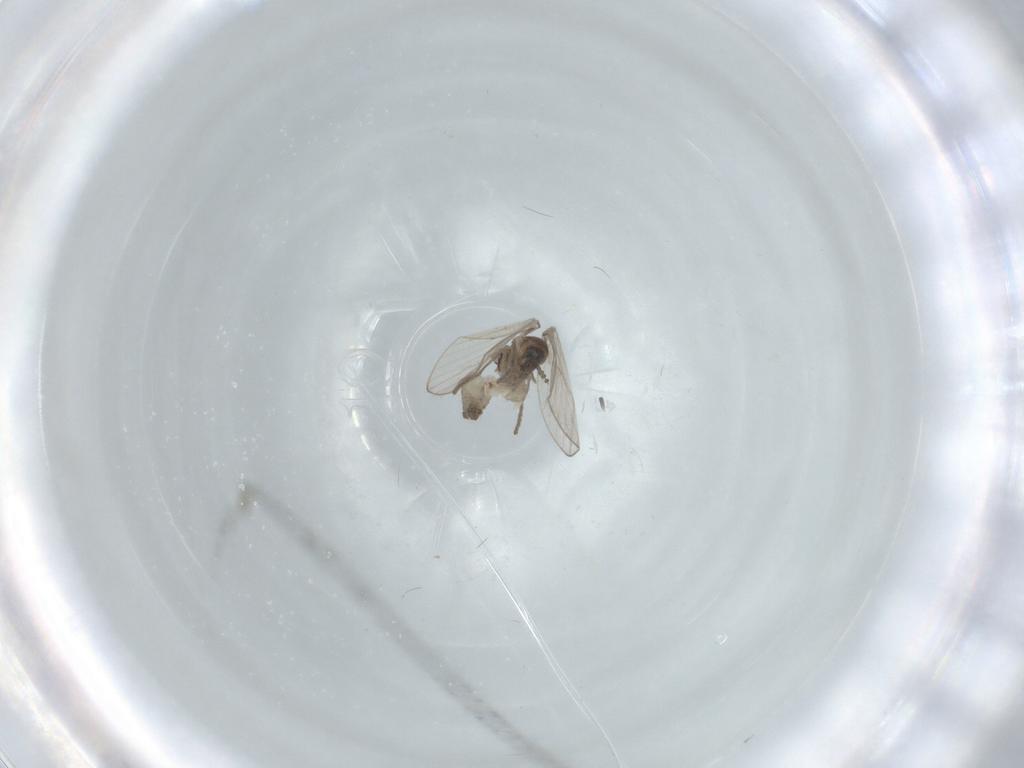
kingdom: Animalia
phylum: Arthropoda
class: Insecta
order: Diptera
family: Psychodidae
